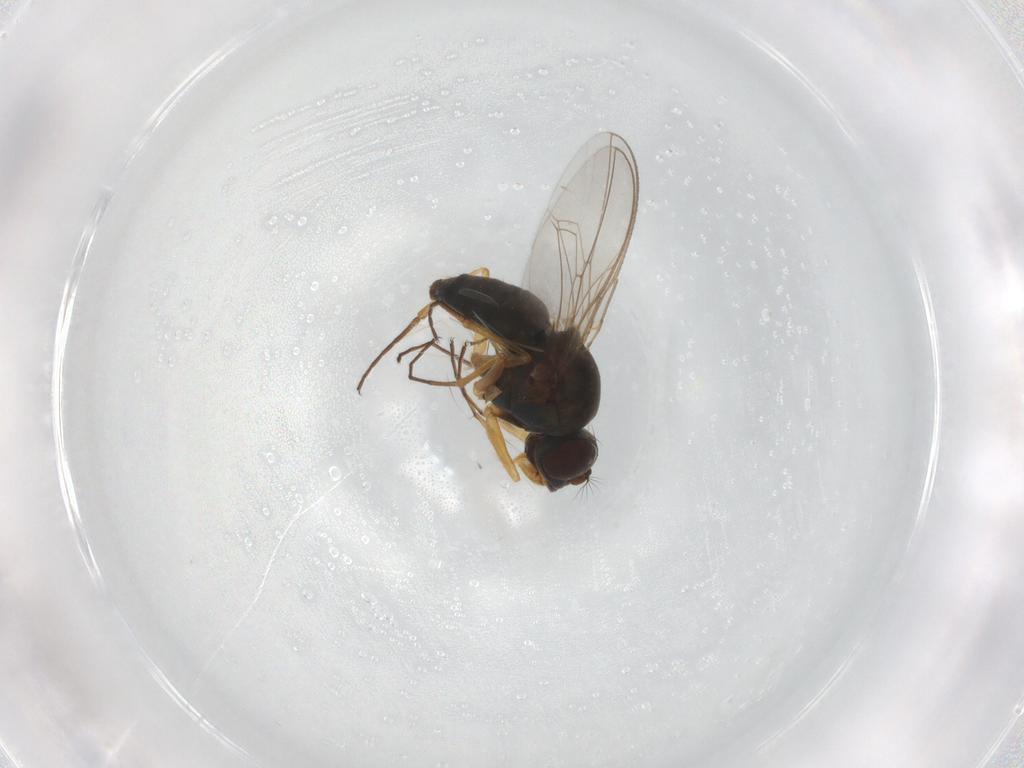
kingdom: Animalia
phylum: Arthropoda
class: Insecta
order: Diptera
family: Ephydridae
